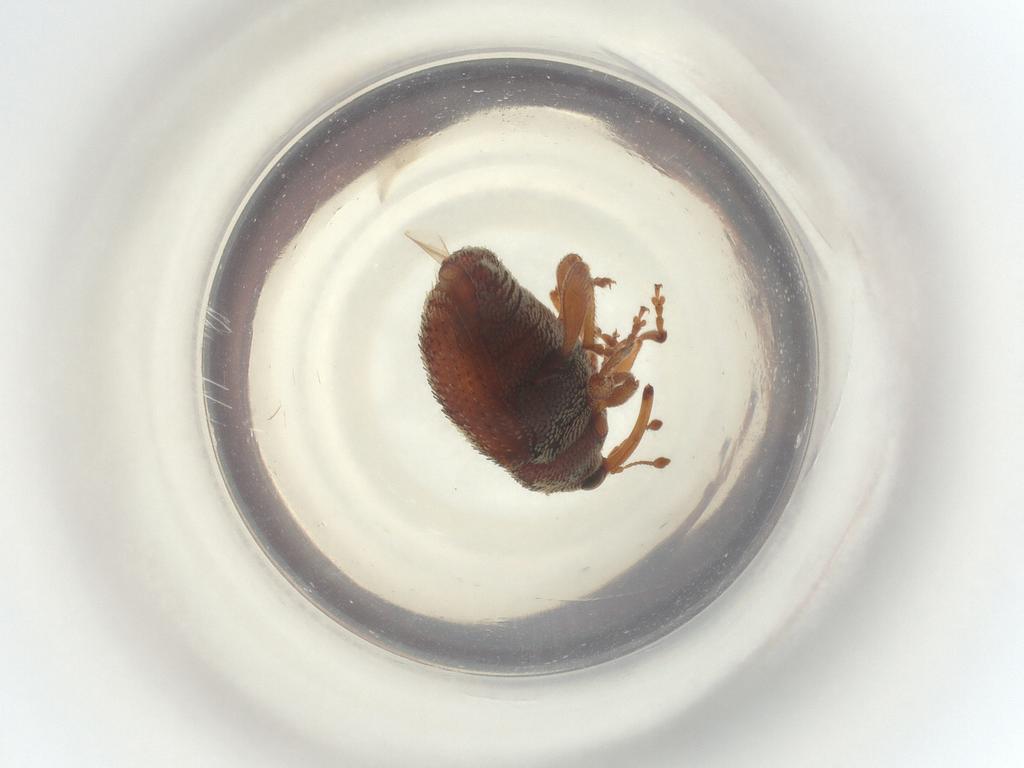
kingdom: Animalia
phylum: Arthropoda
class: Insecta
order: Coleoptera
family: Curculionidae
